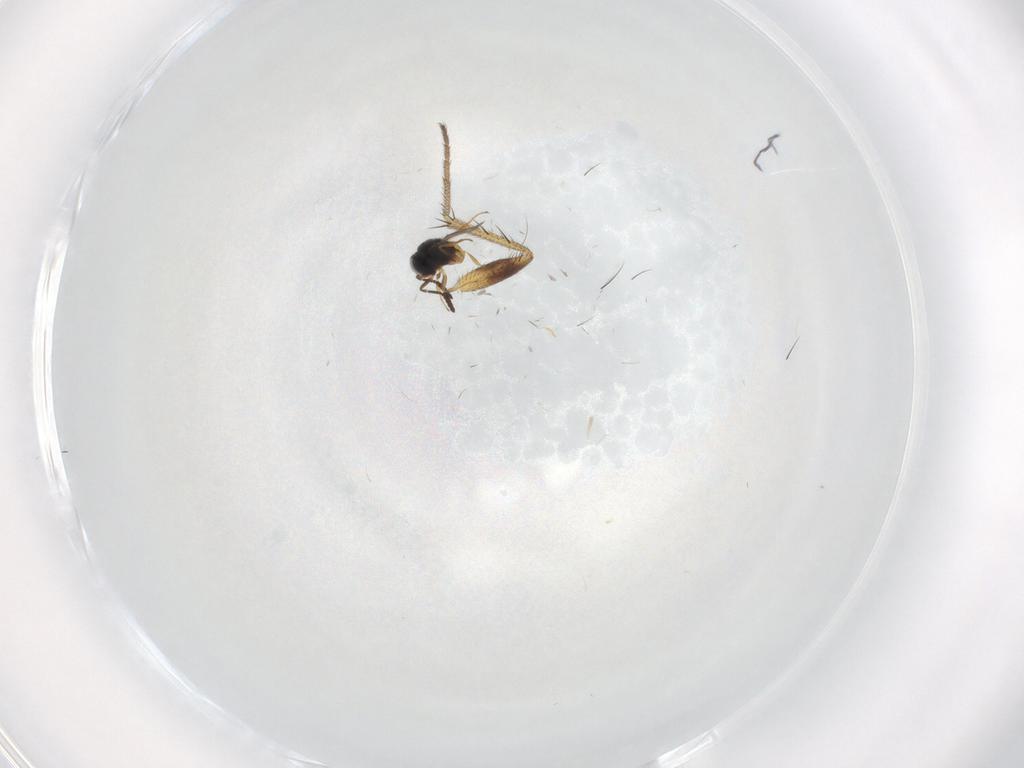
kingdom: Animalia
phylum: Arthropoda
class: Insecta
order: Hymenoptera
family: Scelionidae
